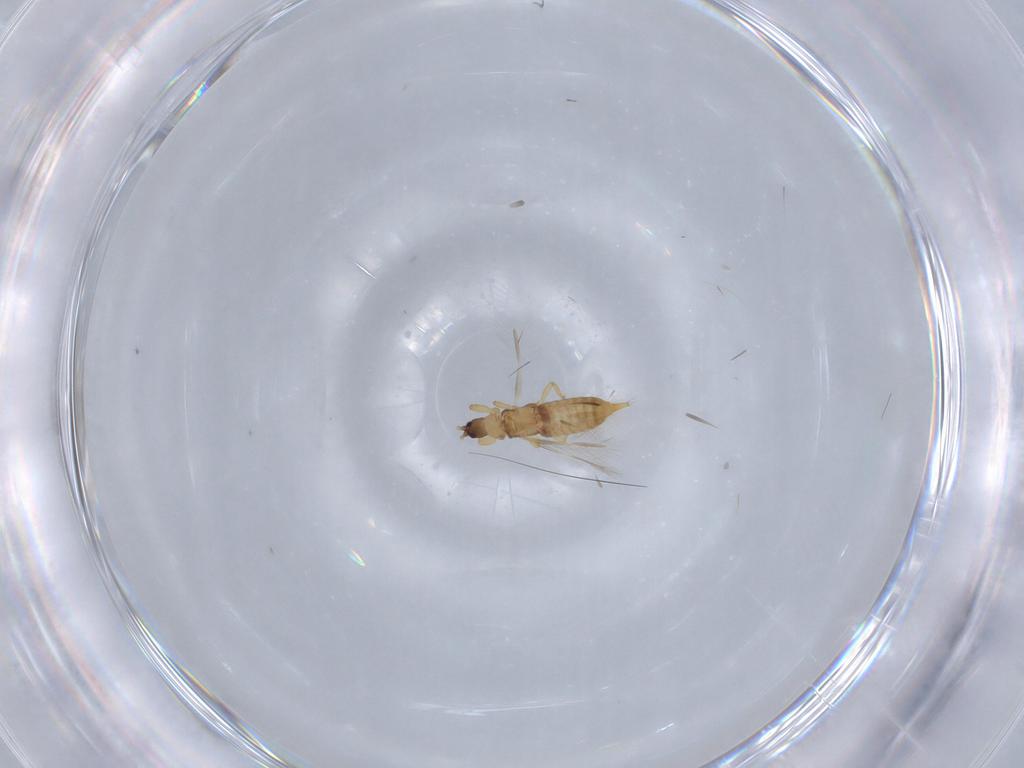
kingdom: Animalia
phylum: Arthropoda
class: Insecta
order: Thysanoptera
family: Phlaeothripidae
